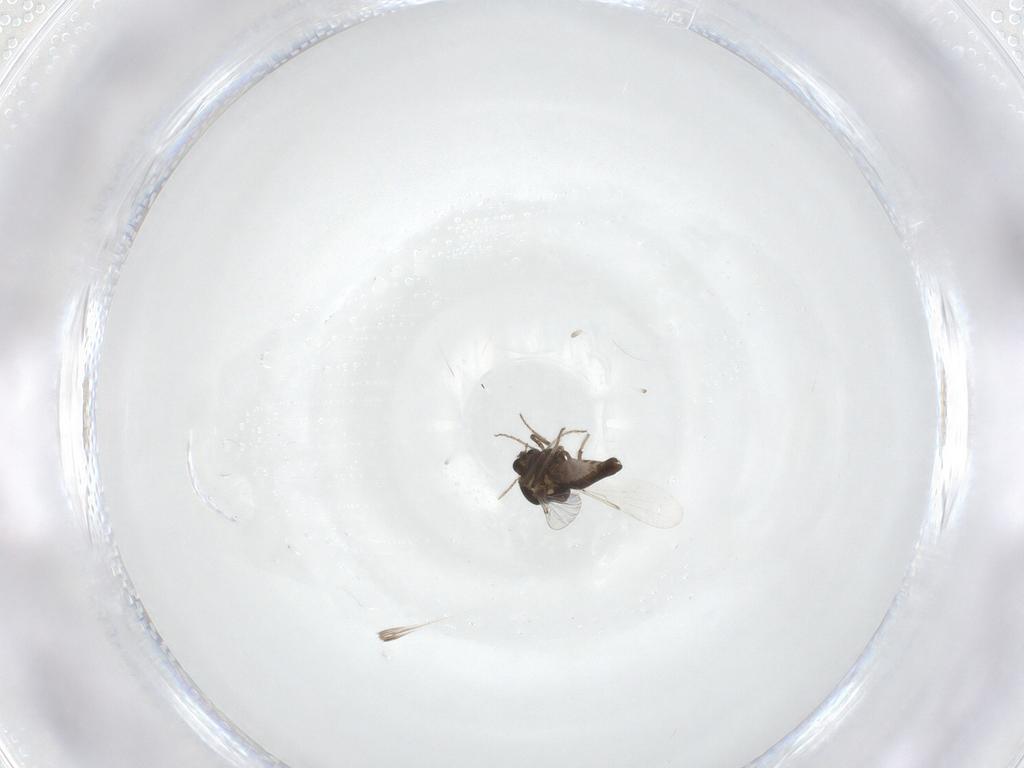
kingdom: Animalia
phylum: Arthropoda
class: Insecta
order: Diptera
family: Ceratopogonidae
